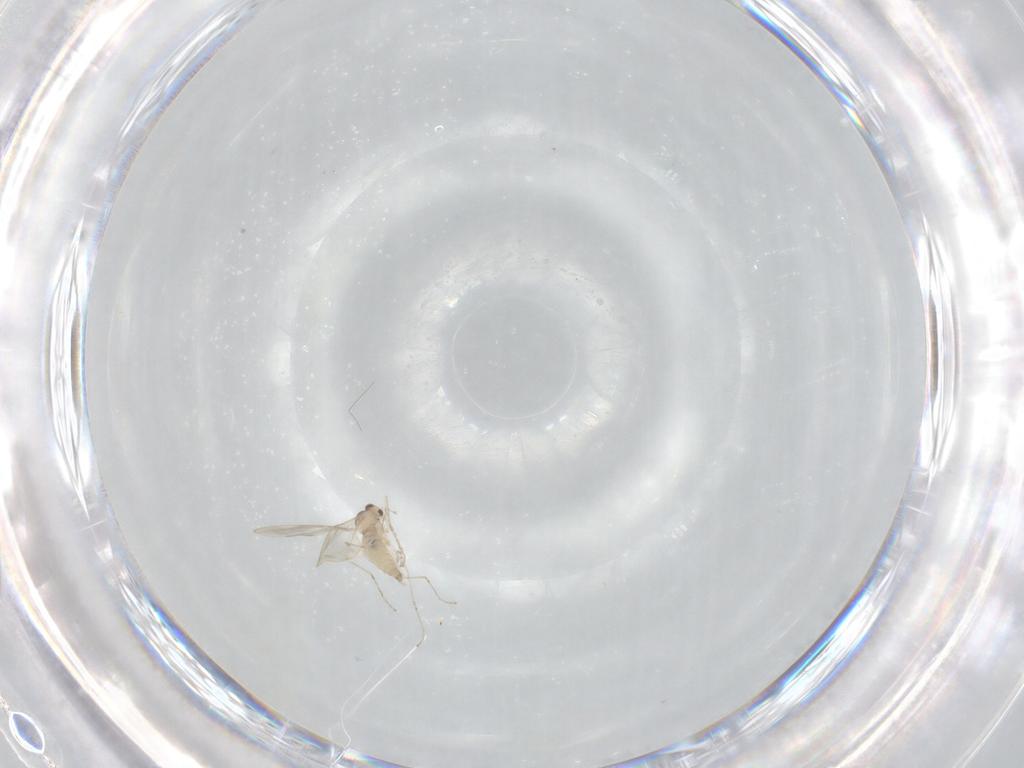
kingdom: Animalia
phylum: Arthropoda
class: Insecta
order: Diptera
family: Cecidomyiidae
